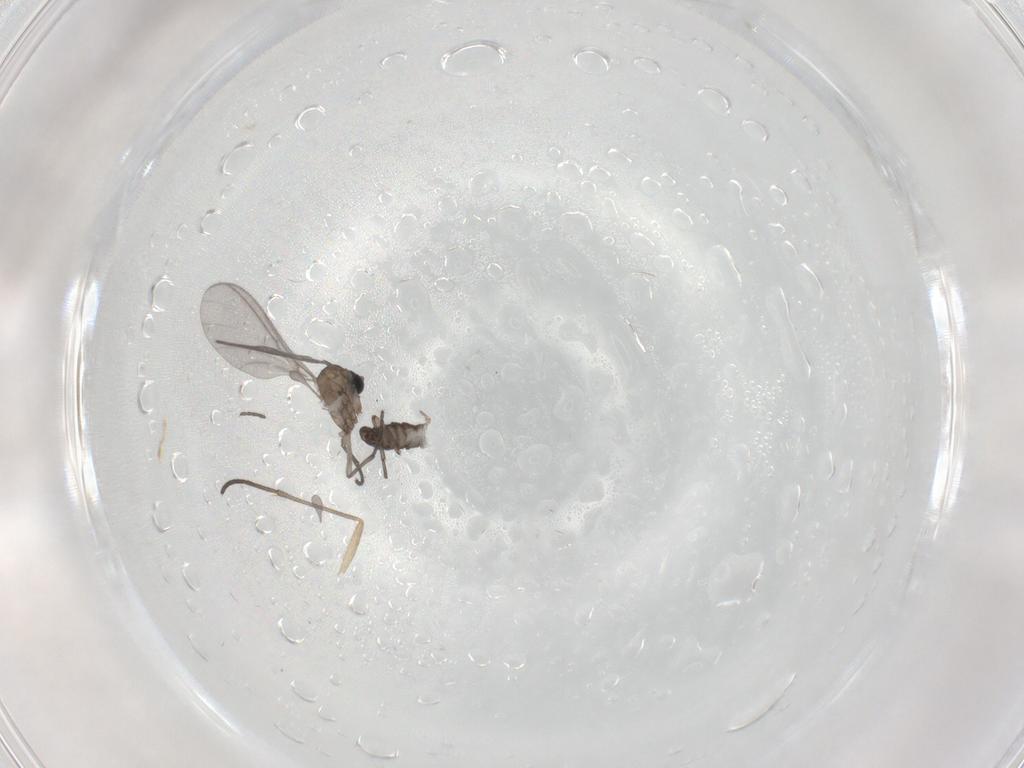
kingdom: Animalia
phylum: Arthropoda
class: Insecta
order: Diptera
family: Sciaridae
